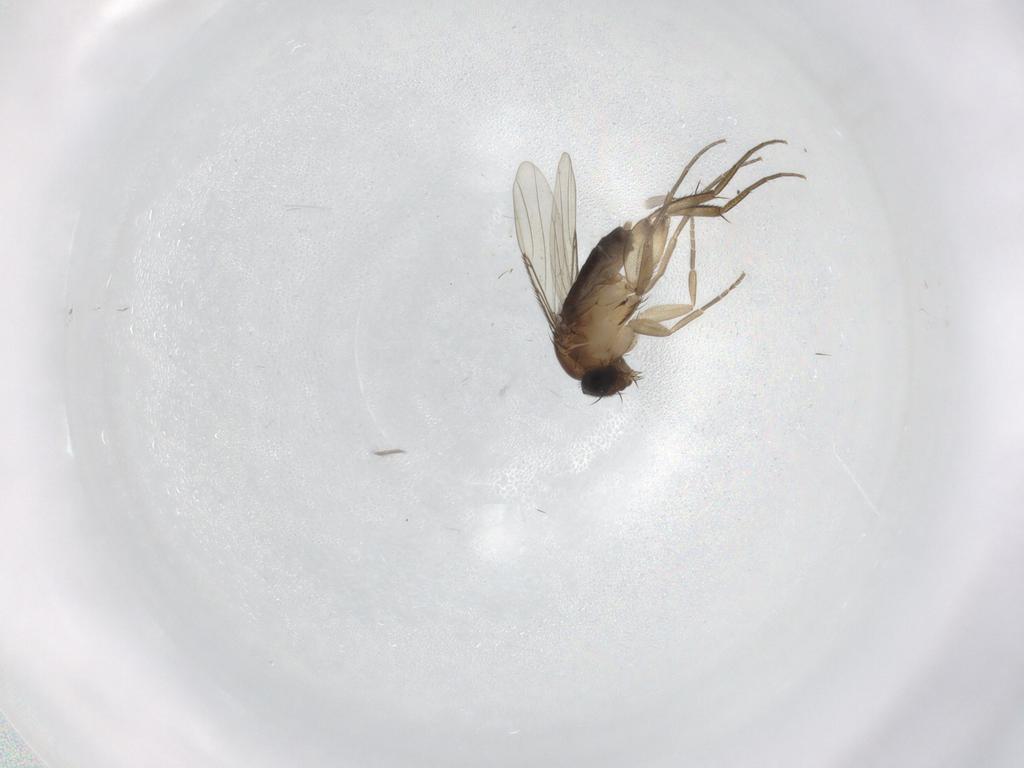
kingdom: Animalia
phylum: Arthropoda
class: Insecta
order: Diptera
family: Phoridae
